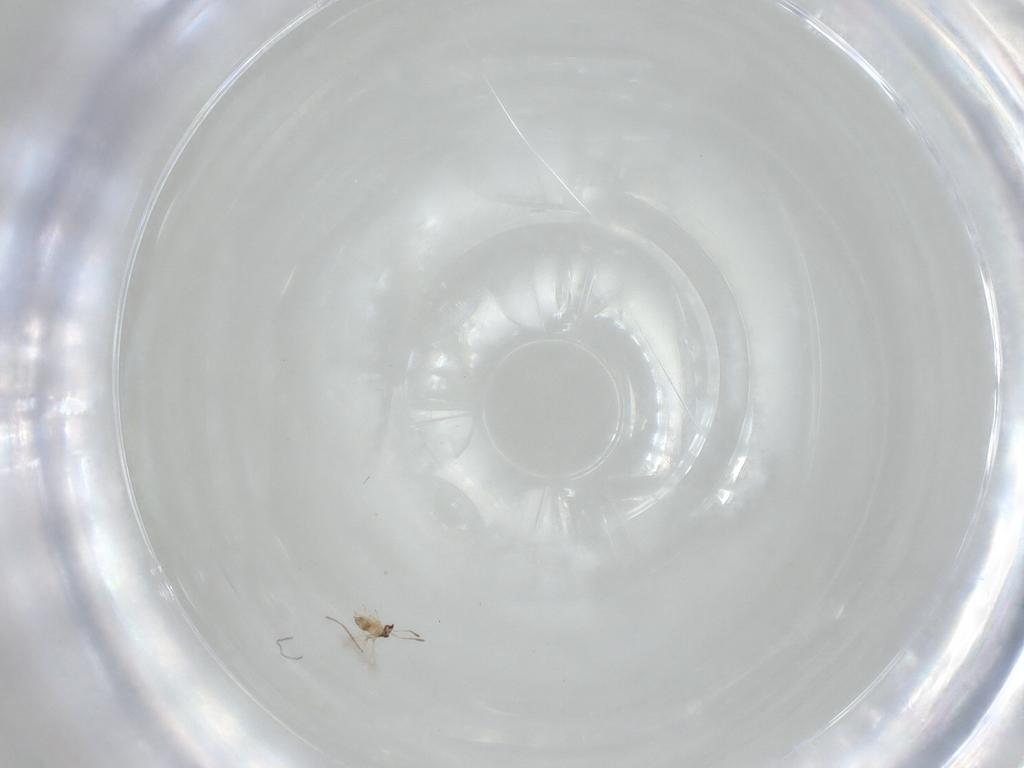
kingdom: Animalia
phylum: Arthropoda
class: Insecta
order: Hymenoptera
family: Mymaridae
